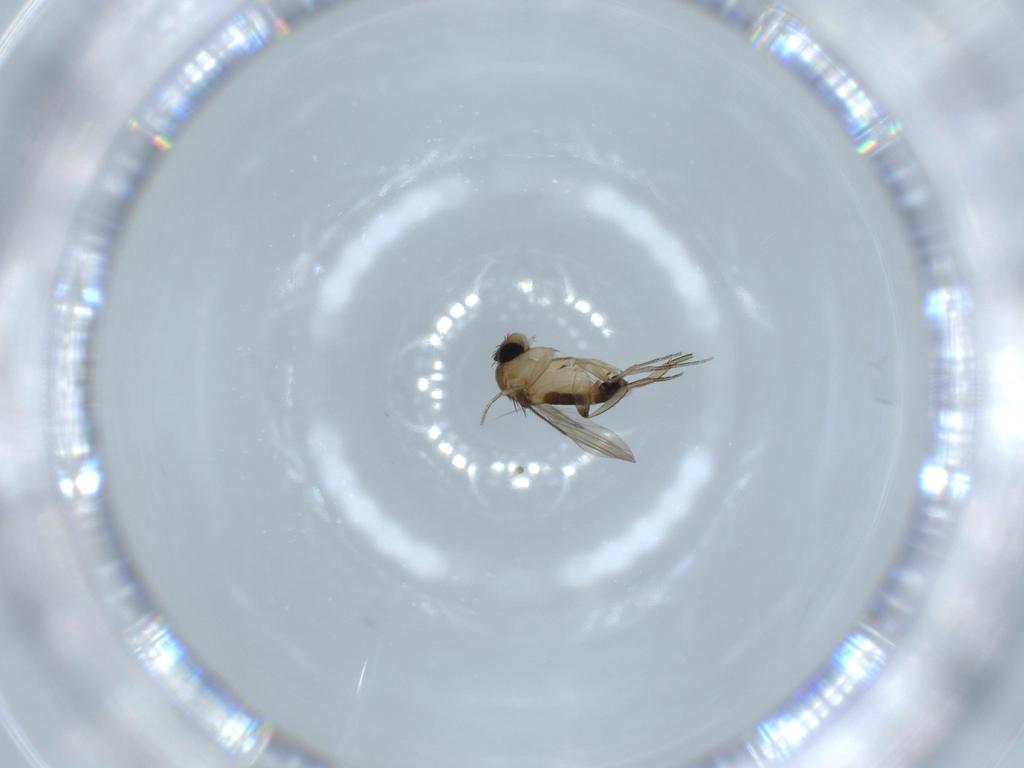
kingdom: Animalia
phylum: Arthropoda
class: Insecta
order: Diptera
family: Phoridae
